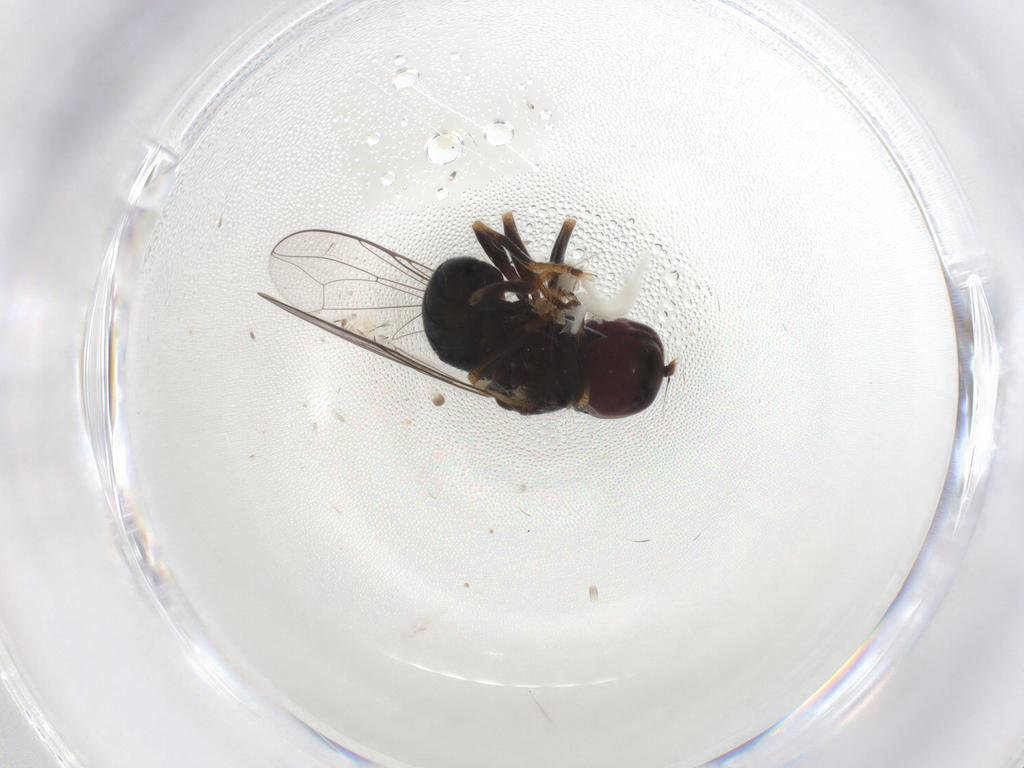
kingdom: Animalia
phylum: Arthropoda
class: Insecta
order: Diptera
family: Pipunculidae
